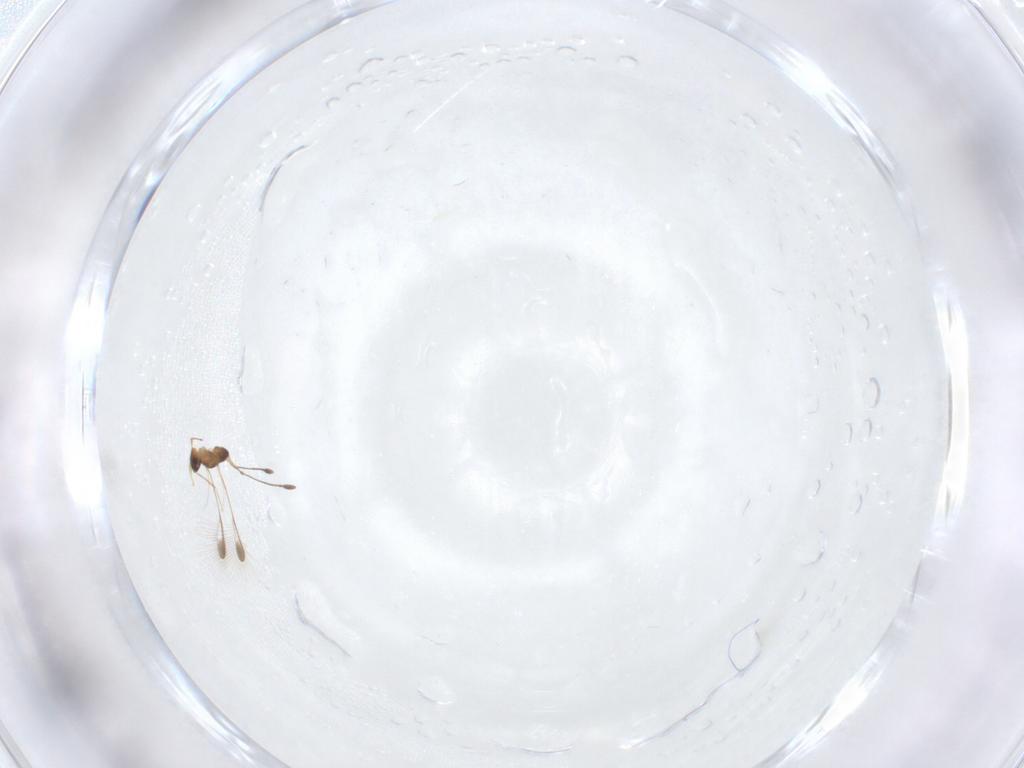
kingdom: Animalia
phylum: Arthropoda
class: Insecta
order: Hymenoptera
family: Mymaridae
